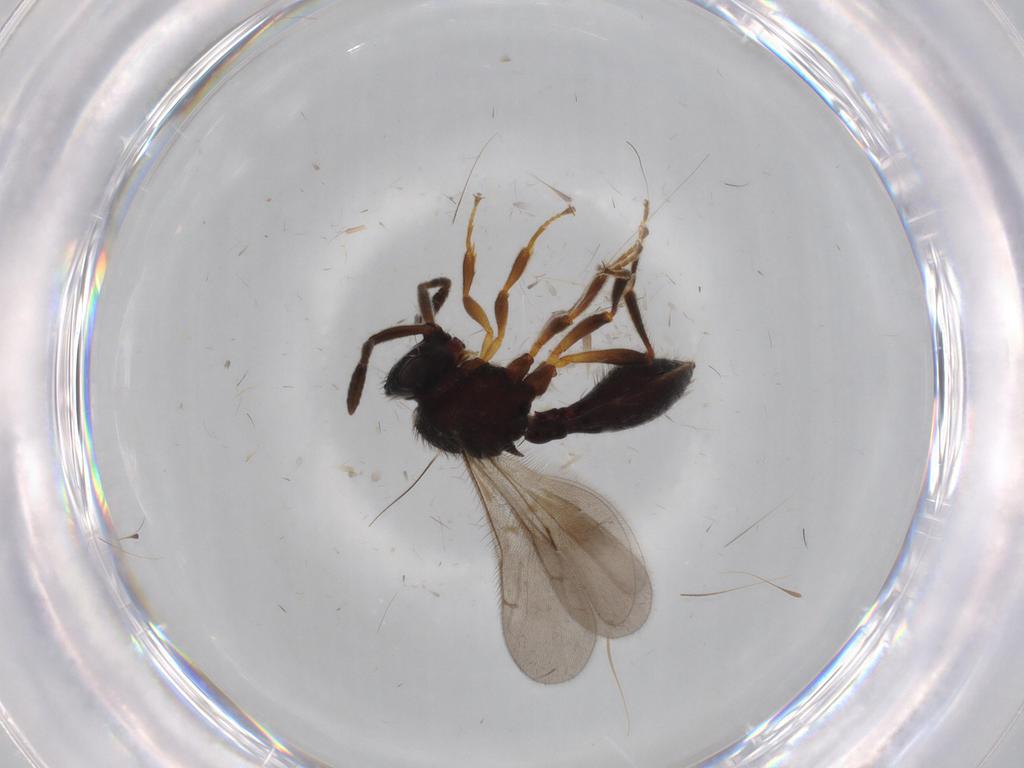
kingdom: Animalia
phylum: Arthropoda
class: Insecta
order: Hymenoptera
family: Scelionidae
